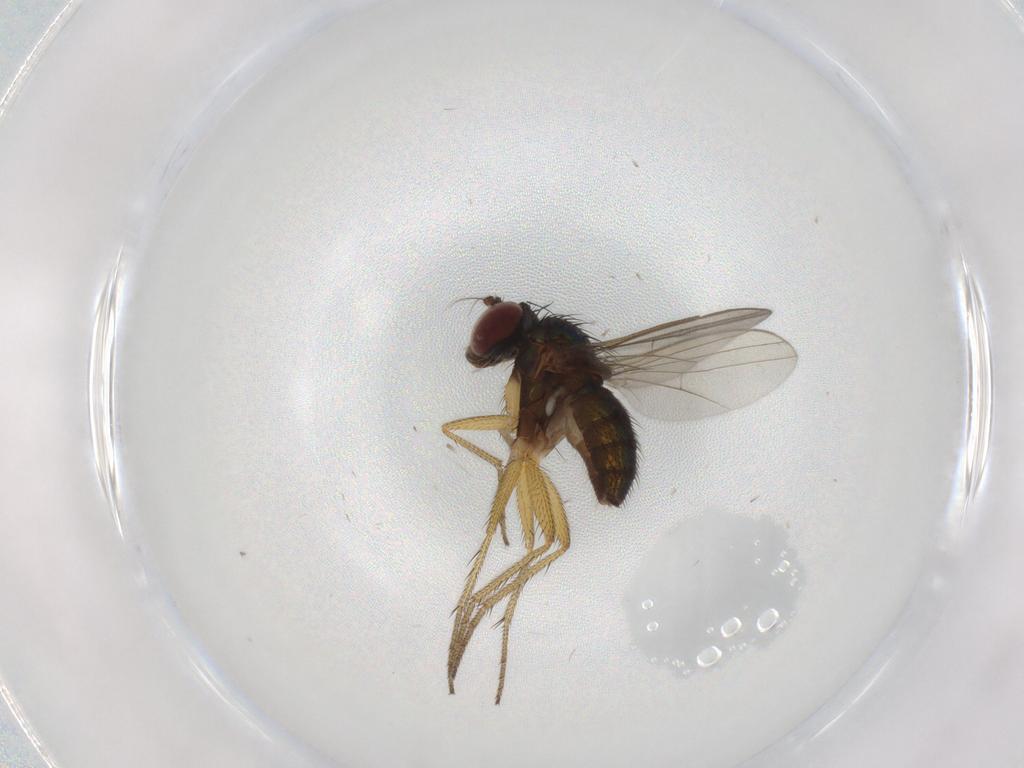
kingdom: Animalia
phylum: Arthropoda
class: Insecta
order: Diptera
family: Dolichopodidae
